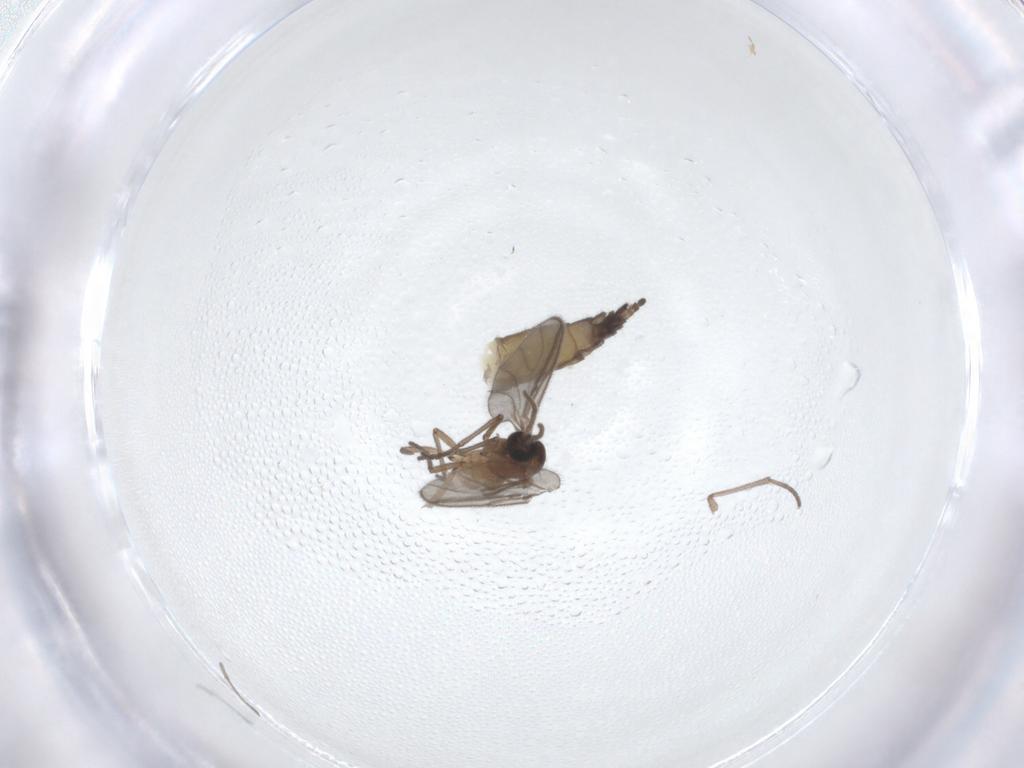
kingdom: Animalia
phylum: Arthropoda
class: Insecta
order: Diptera
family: Sciaridae
